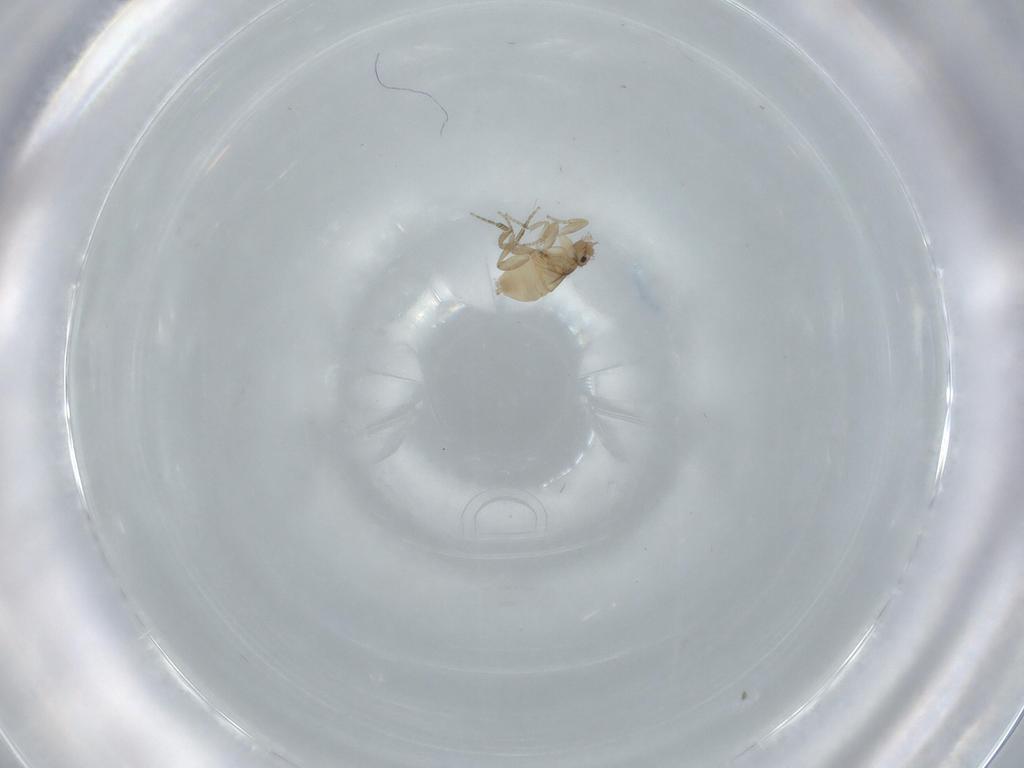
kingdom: Animalia
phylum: Arthropoda
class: Insecta
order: Diptera
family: Phoridae
